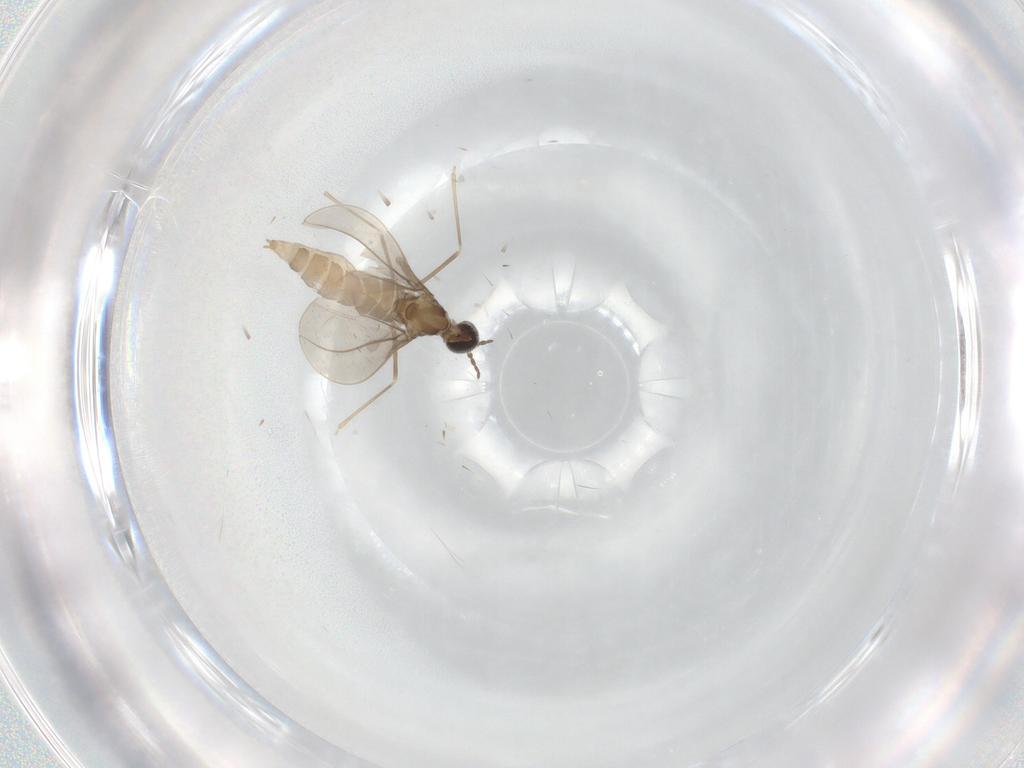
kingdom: Animalia
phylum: Arthropoda
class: Insecta
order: Diptera
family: Cecidomyiidae
